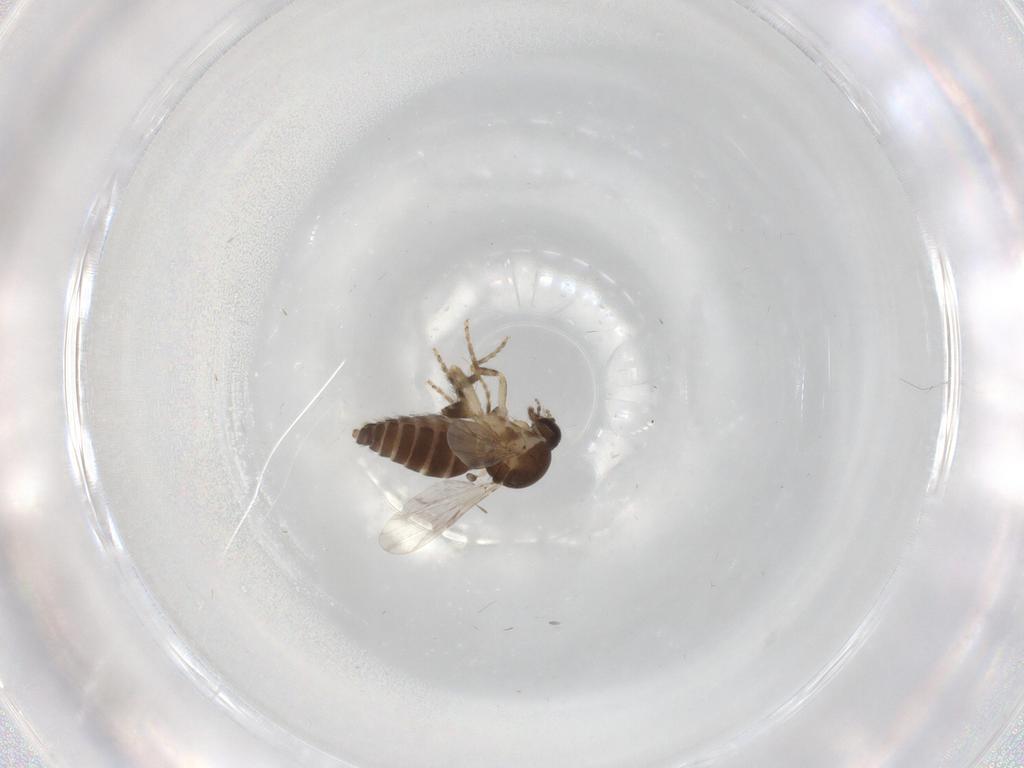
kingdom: Animalia
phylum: Arthropoda
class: Insecta
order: Diptera
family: Ceratopogonidae
